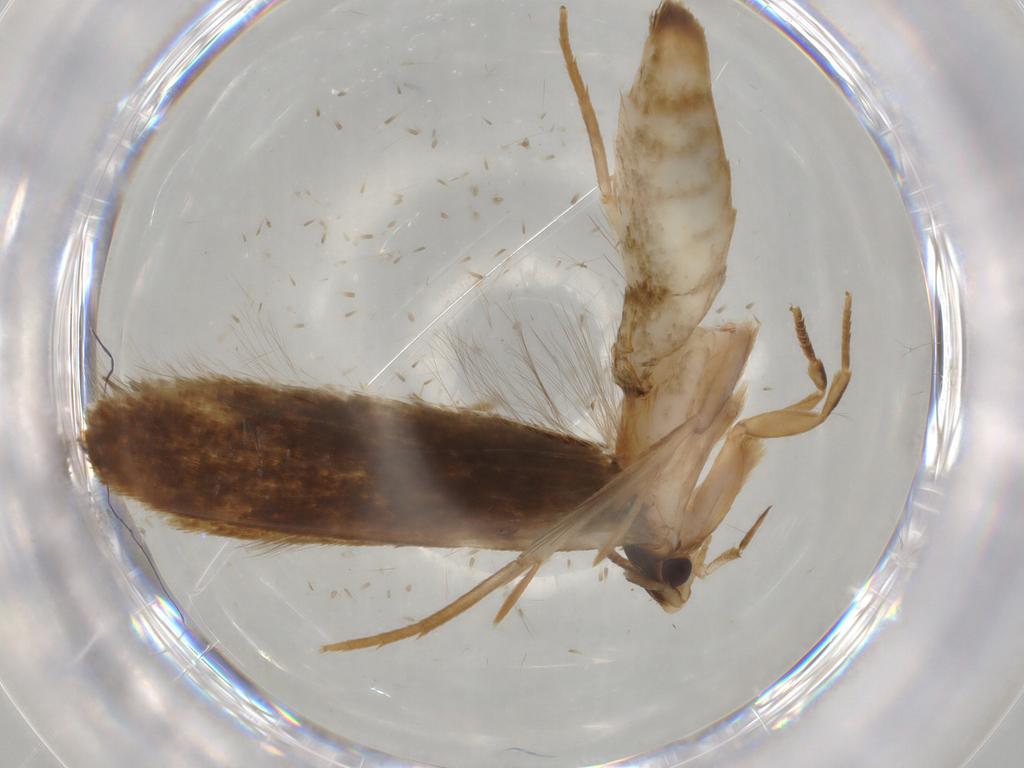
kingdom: Animalia
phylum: Arthropoda
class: Insecta
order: Lepidoptera
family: Tineidae
